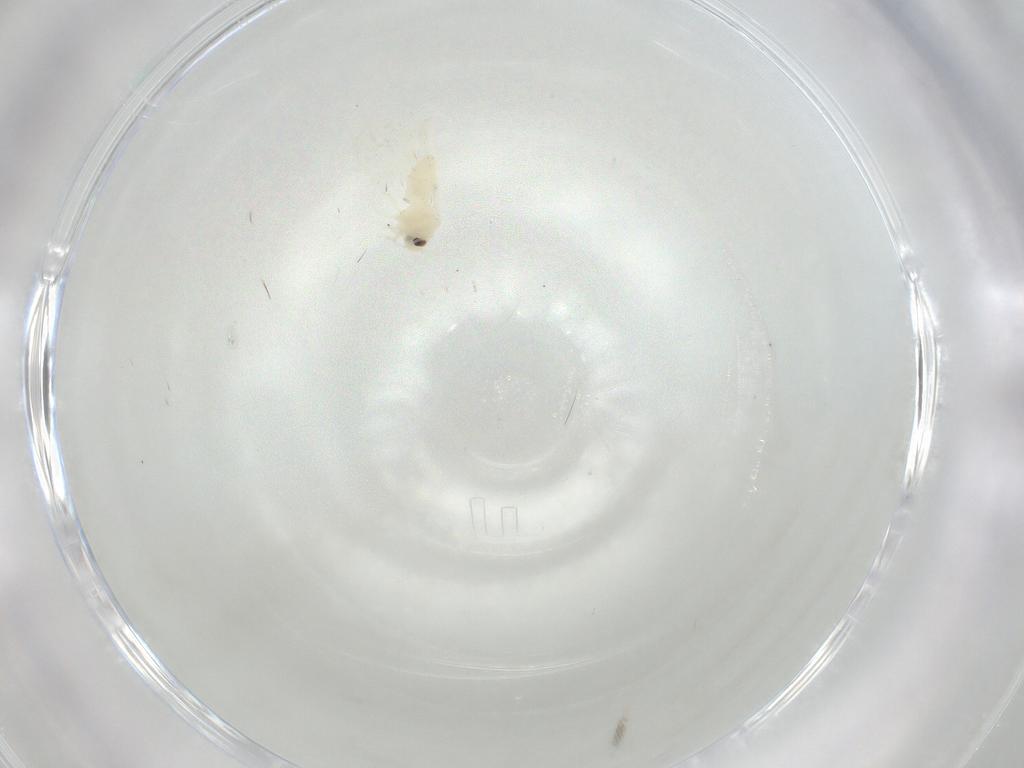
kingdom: Animalia
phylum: Arthropoda
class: Insecta
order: Hemiptera
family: Aleyrodidae
